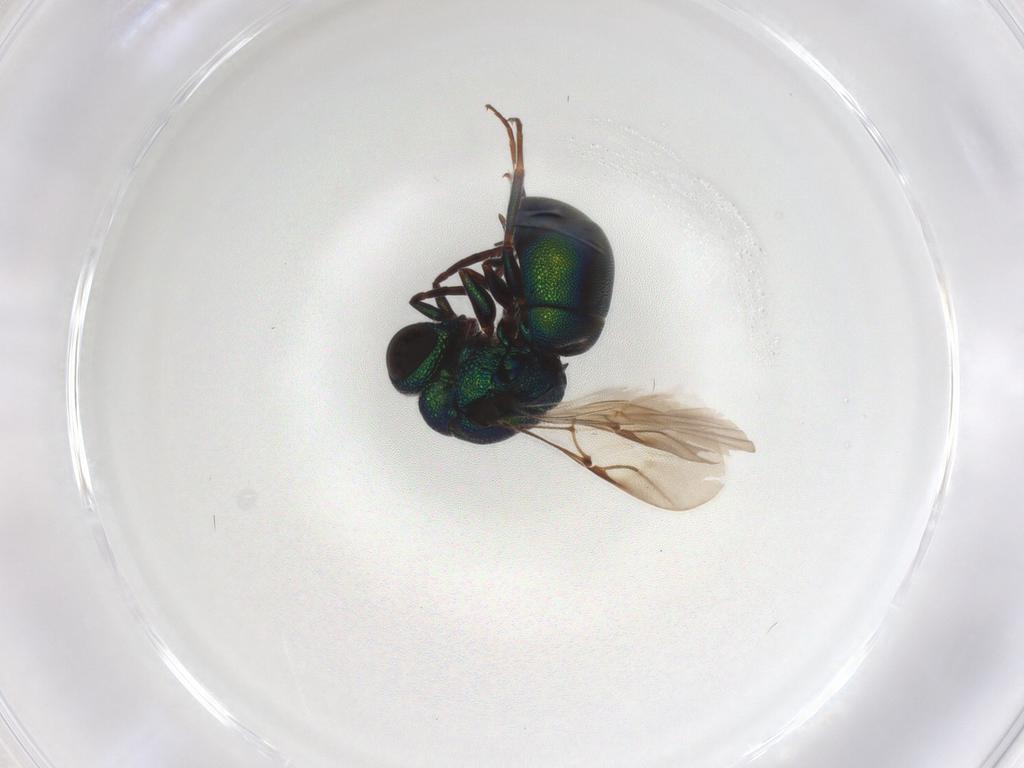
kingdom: Animalia
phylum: Arthropoda
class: Insecta
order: Hymenoptera
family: Chrysididae
